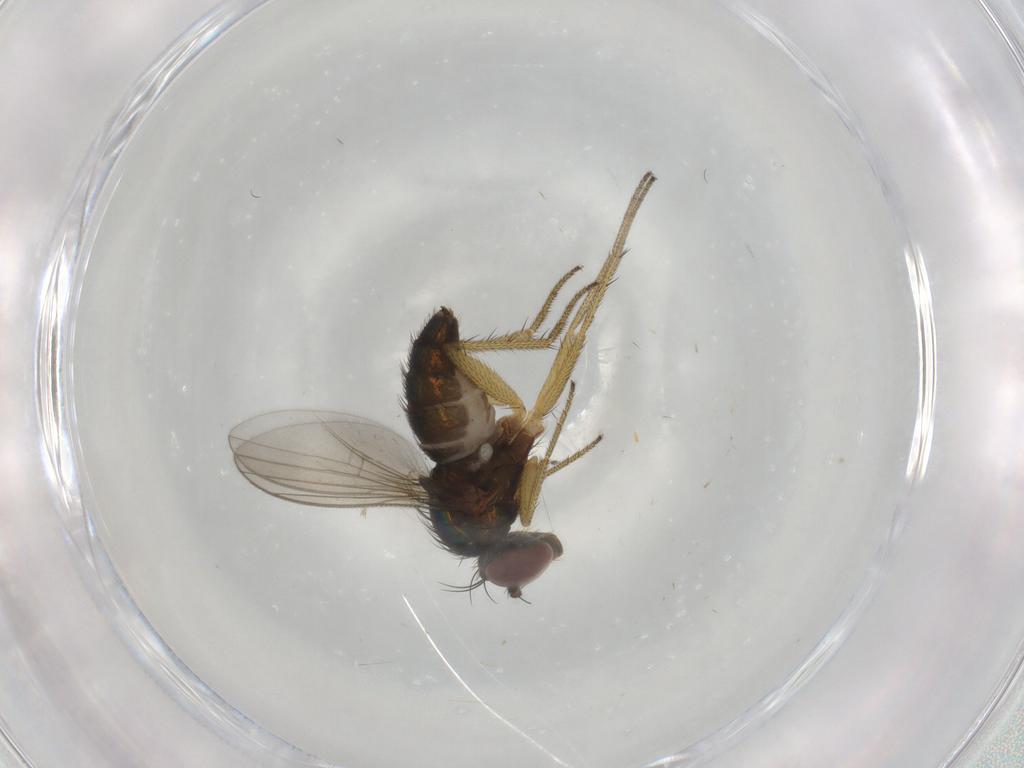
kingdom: Animalia
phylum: Arthropoda
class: Insecta
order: Diptera
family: Dolichopodidae
